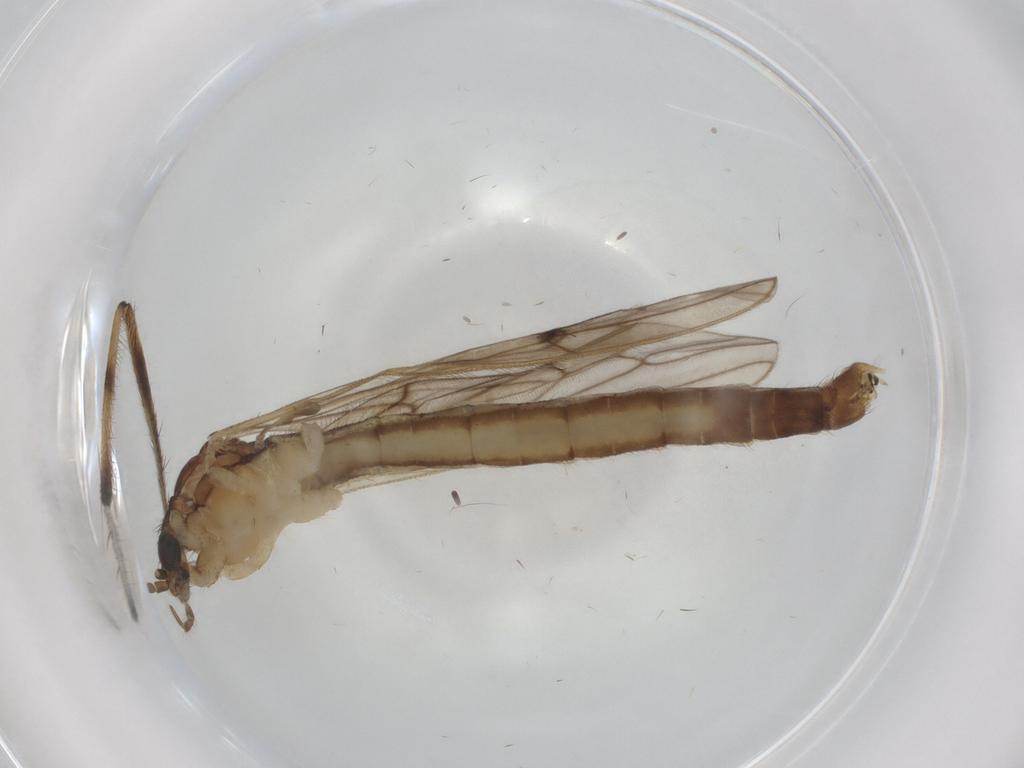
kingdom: Animalia
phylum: Arthropoda
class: Insecta
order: Diptera
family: Limoniidae
